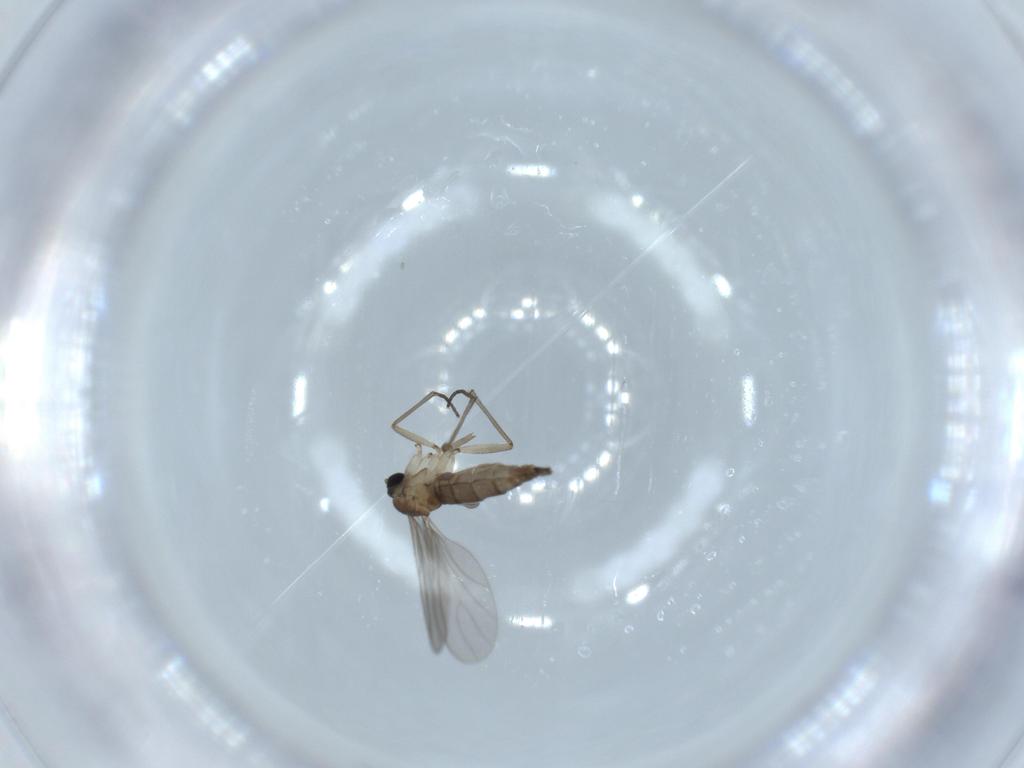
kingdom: Animalia
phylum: Arthropoda
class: Insecta
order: Diptera
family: Sciaridae
